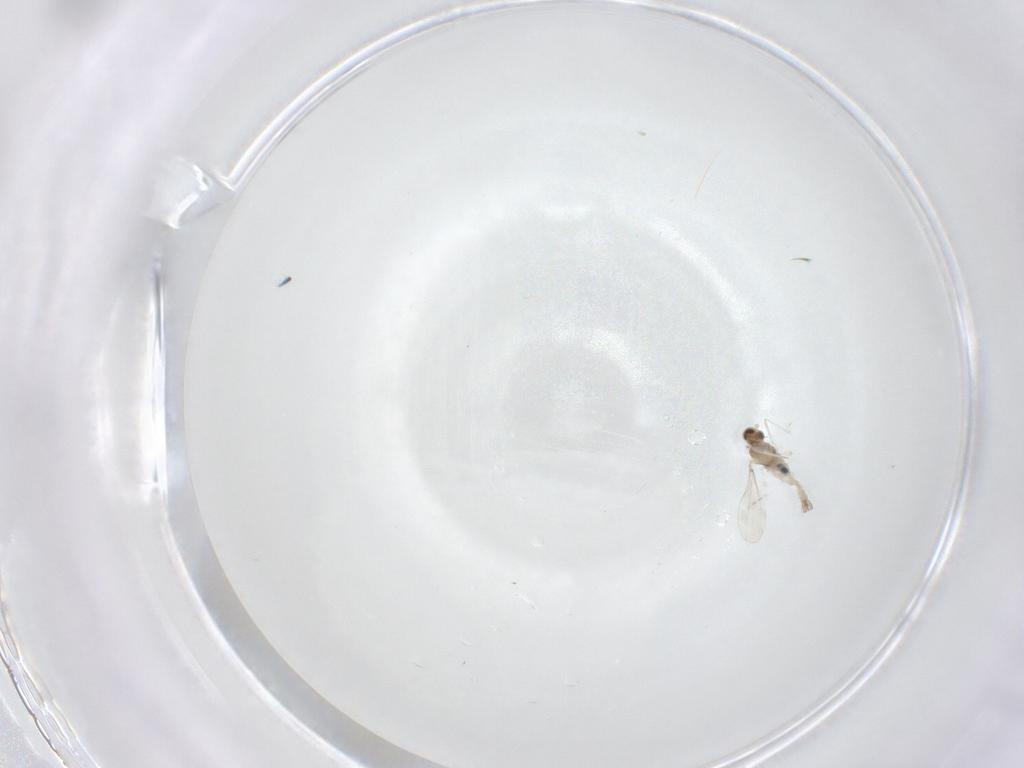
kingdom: Animalia
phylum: Arthropoda
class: Insecta
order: Diptera
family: Cecidomyiidae
